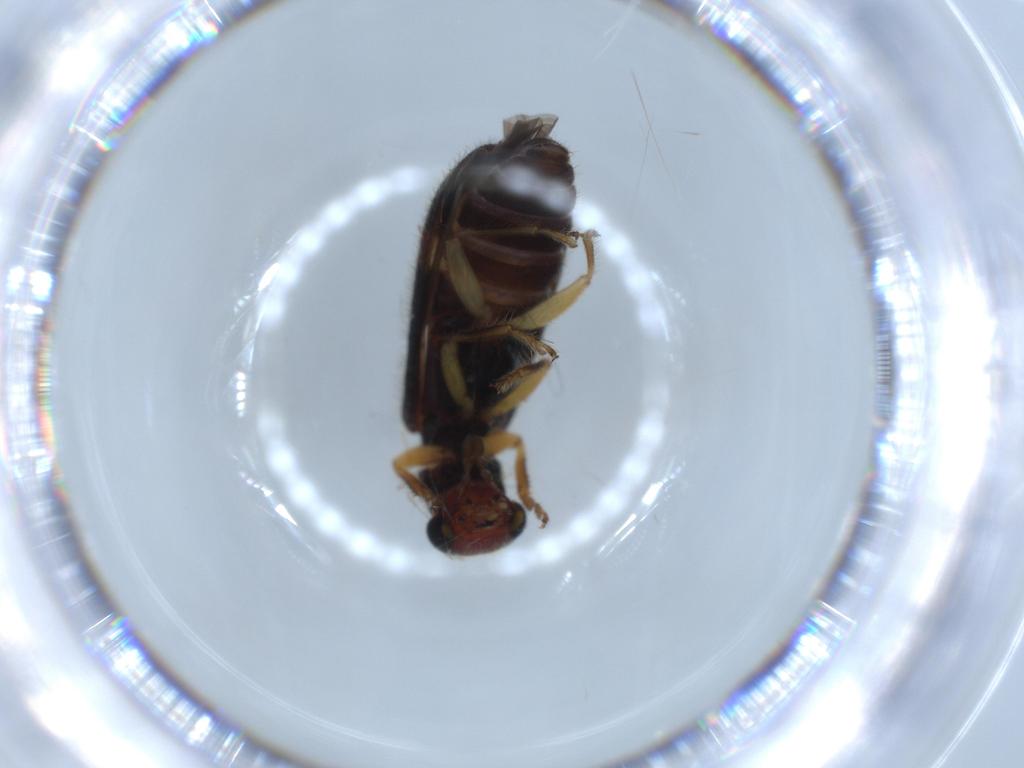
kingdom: Animalia
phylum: Arthropoda
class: Insecta
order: Coleoptera
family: Cleridae
